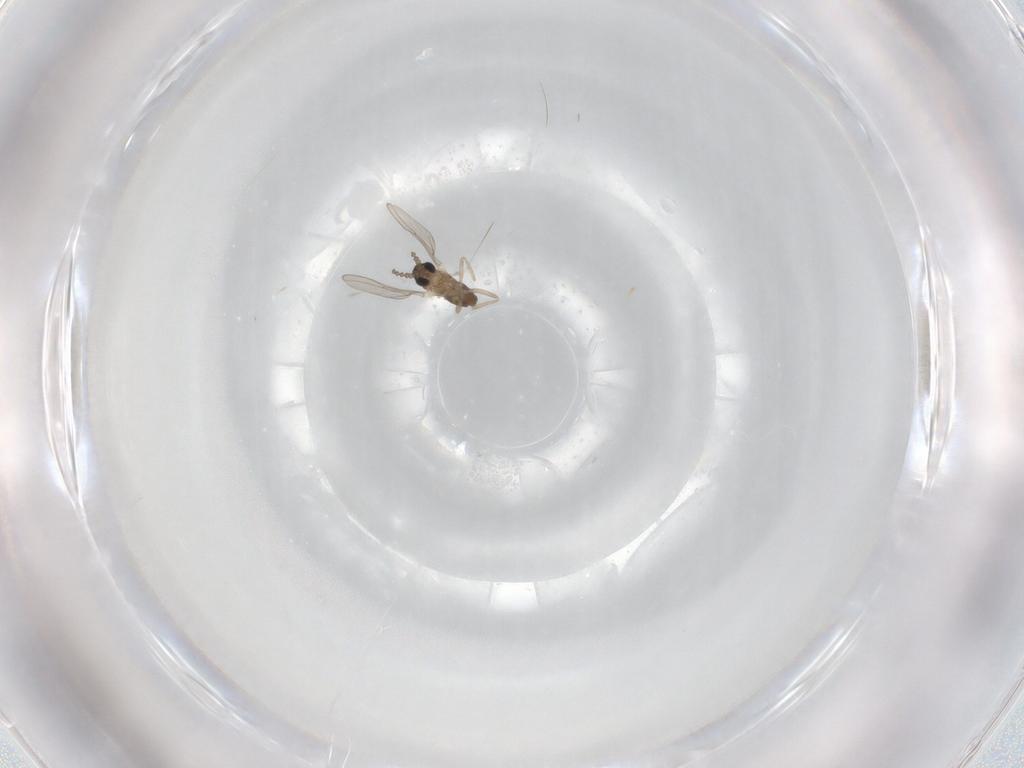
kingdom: Animalia
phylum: Arthropoda
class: Insecta
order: Diptera
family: Cecidomyiidae
